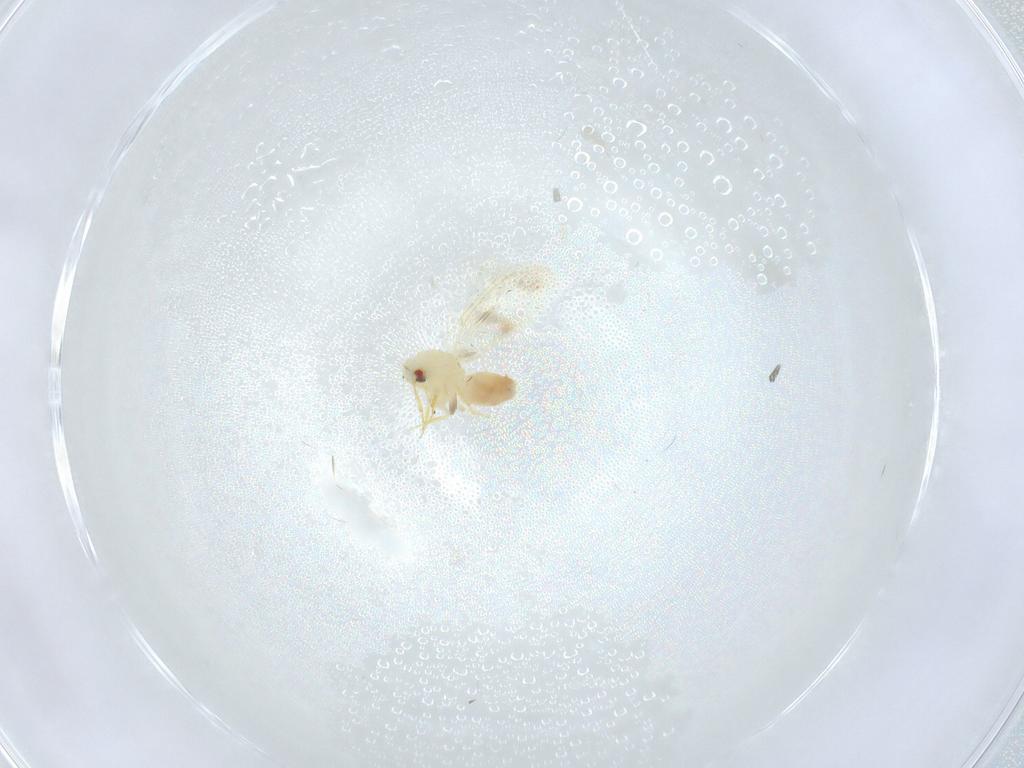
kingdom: Animalia
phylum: Arthropoda
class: Insecta
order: Hemiptera
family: Aleyrodidae
